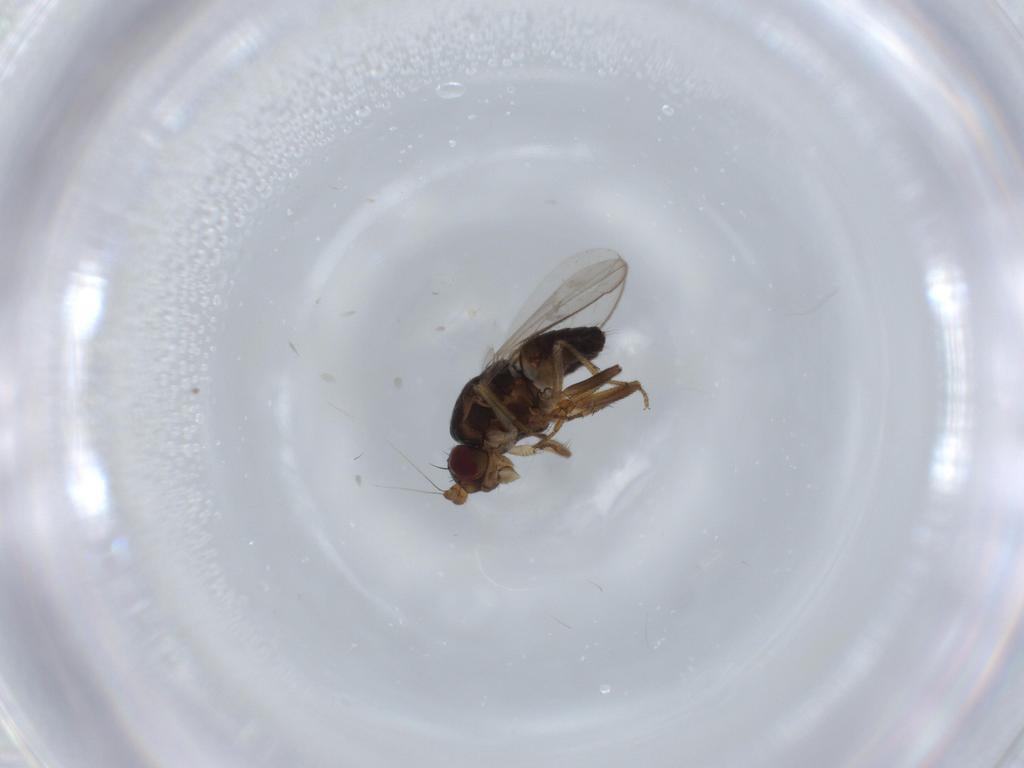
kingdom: Animalia
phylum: Arthropoda
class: Insecta
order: Diptera
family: Sphaeroceridae
